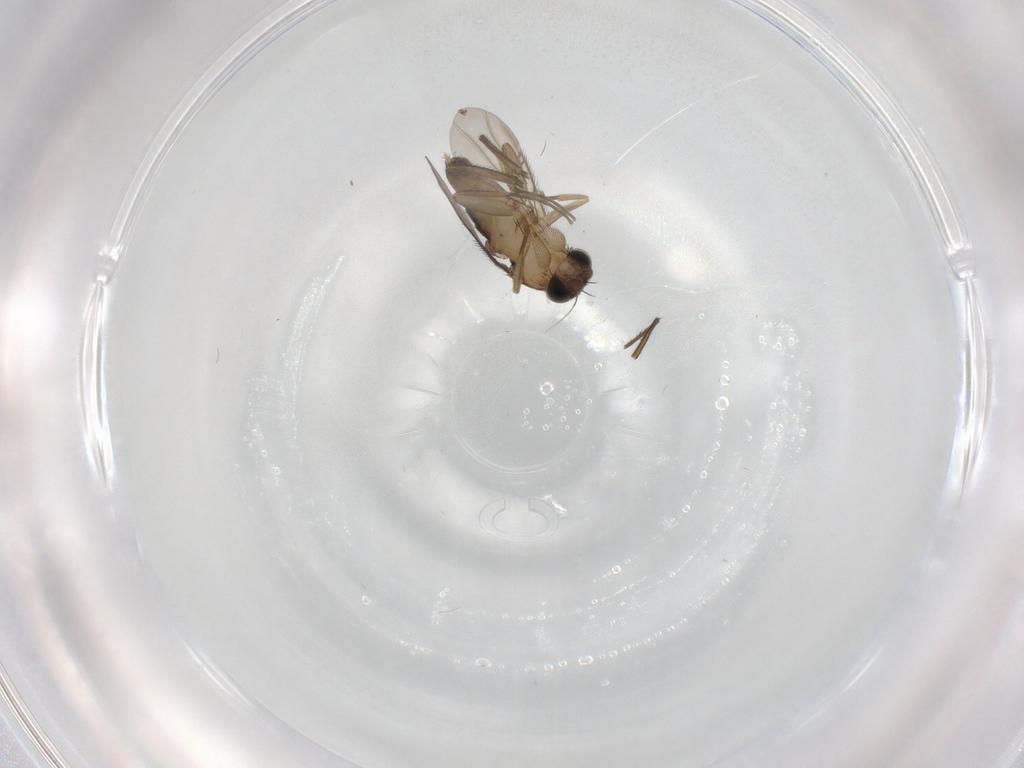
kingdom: Animalia
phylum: Arthropoda
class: Insecta
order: Diptera
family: Phoridae
